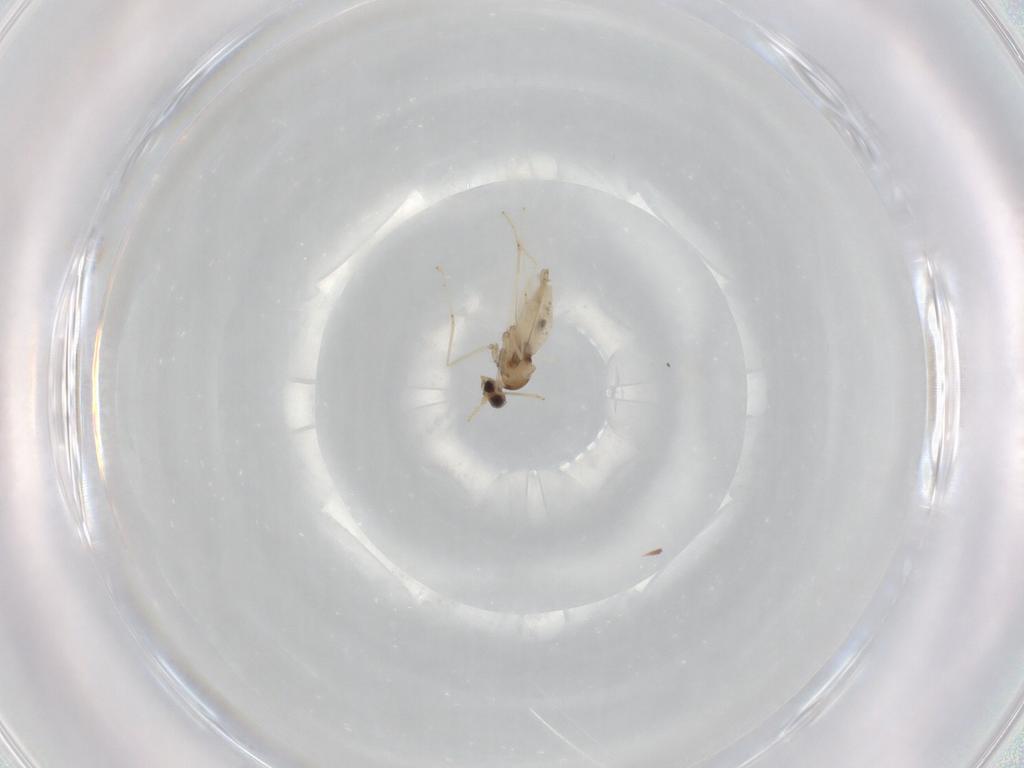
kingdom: Animalia
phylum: Arthropoda
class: Insecta
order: Diptera
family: Cecidomyiidae
